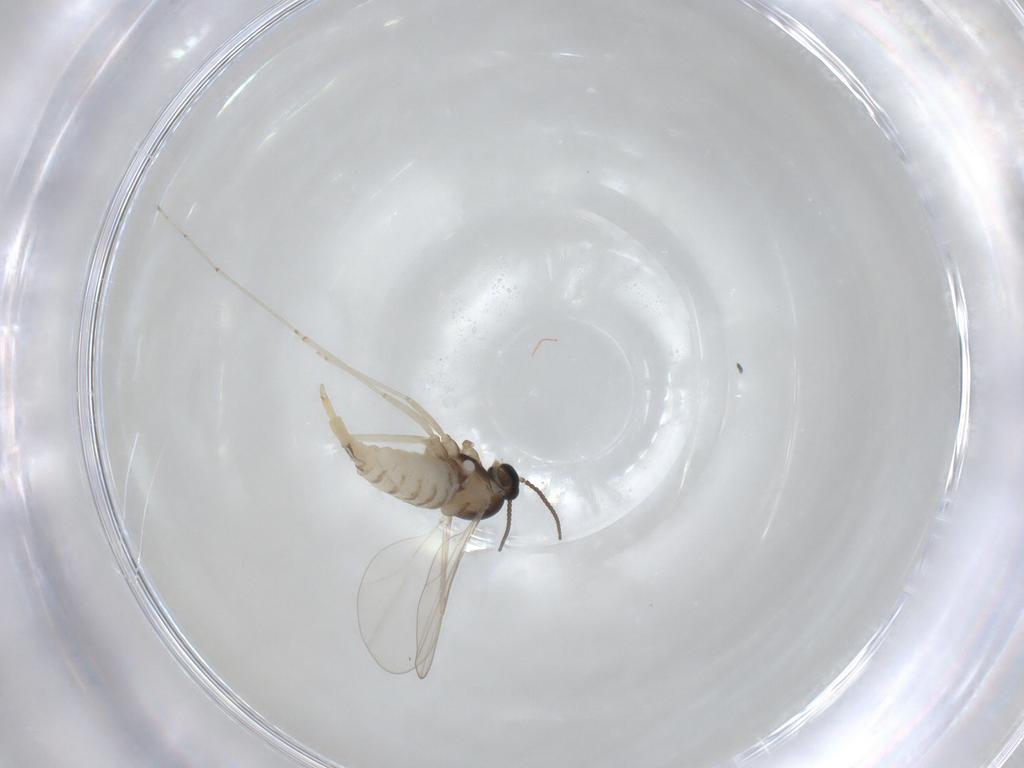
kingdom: Animalia
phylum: Arthropoda
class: Insecta
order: Diptera
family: Cecidomyiidae
